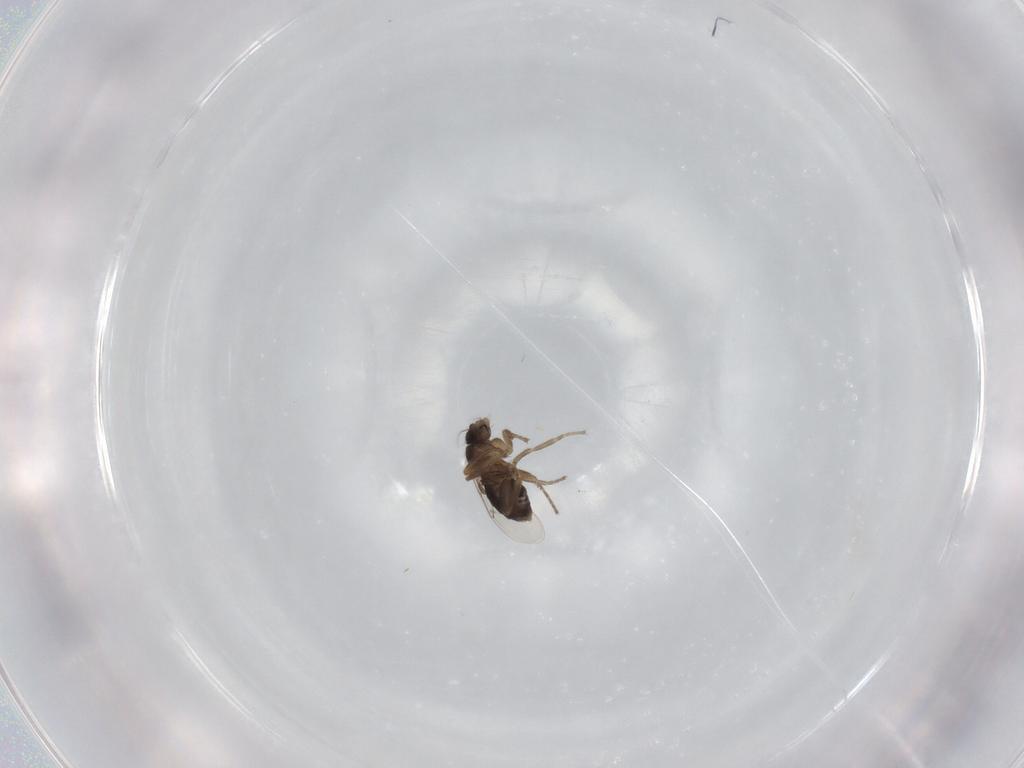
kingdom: Animalia
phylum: Arthropoda
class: Insecta
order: Diptera
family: Phoridae
